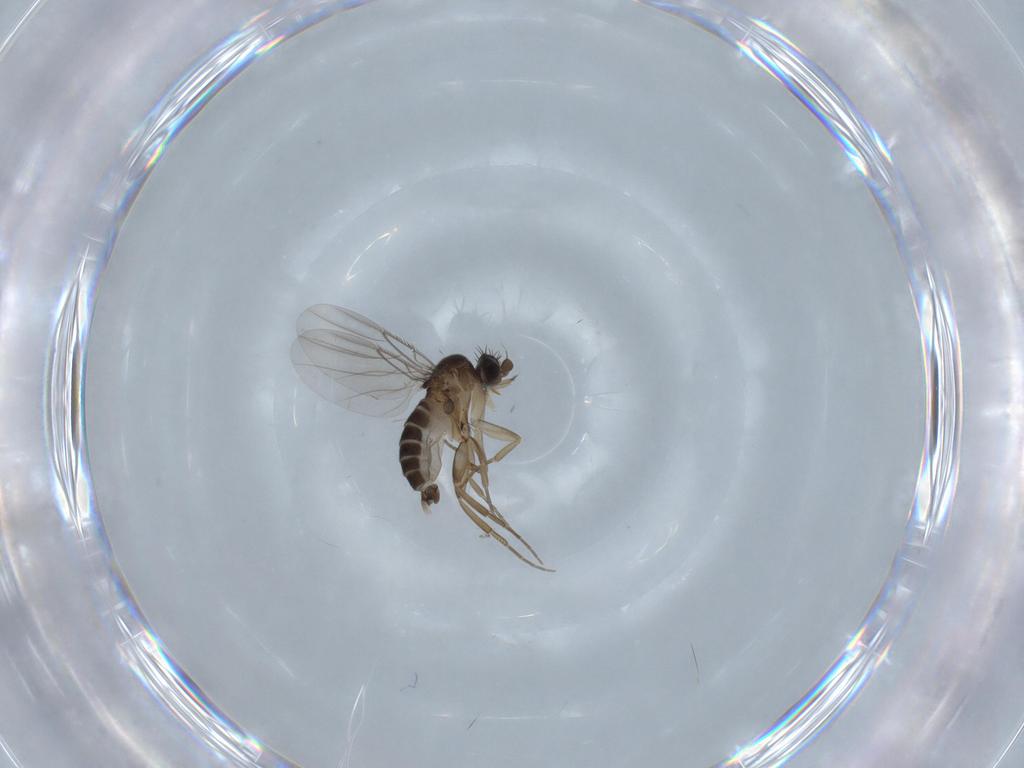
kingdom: Animalia
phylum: Arthropoda
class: Insecta
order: Diptera
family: Phoridae
